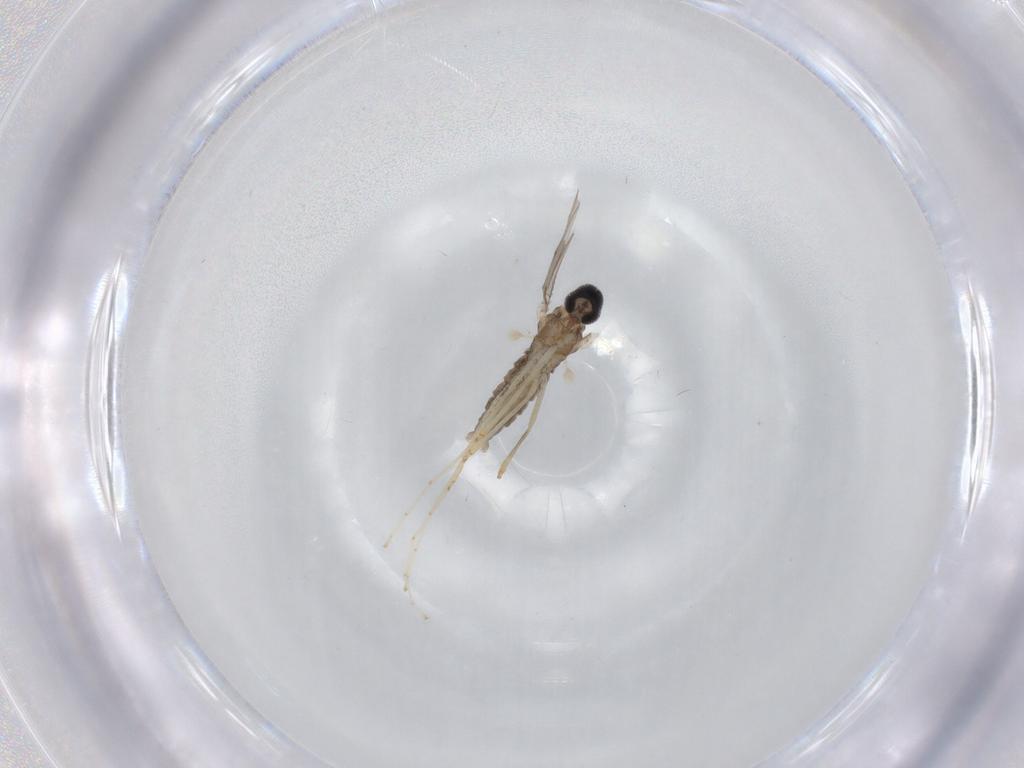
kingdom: Animalia
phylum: Arthropoda
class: Insecta
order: Diptera
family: Cecidomyiidae
